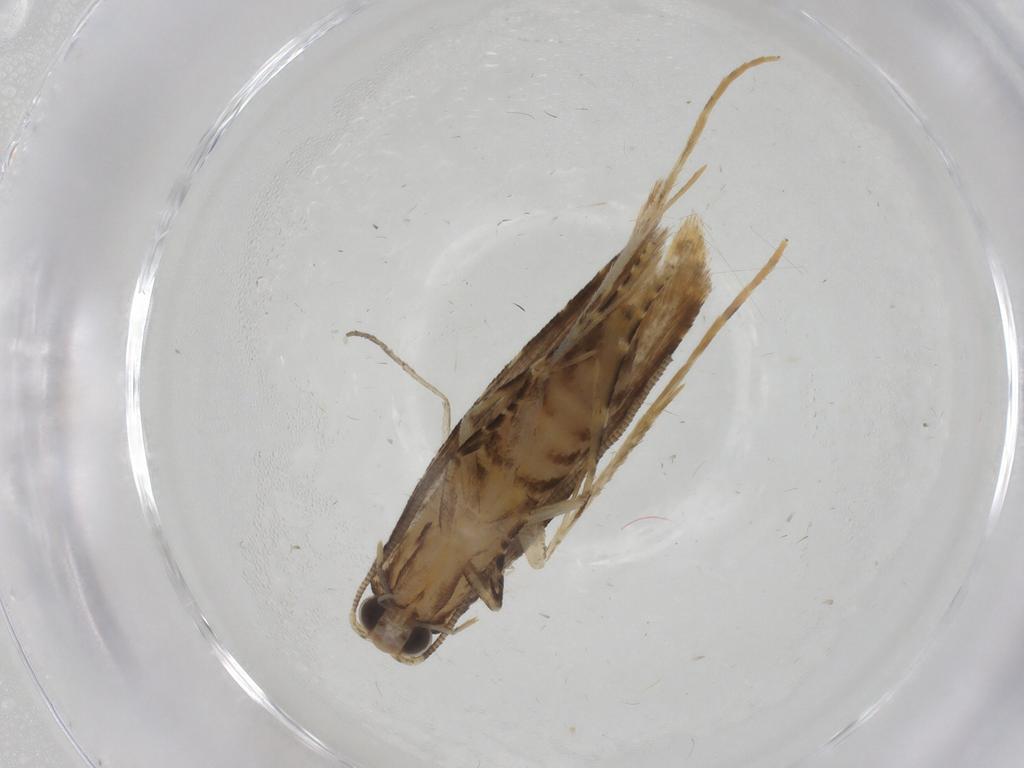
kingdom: Animalia
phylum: Arthropoda
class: Insecta
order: Lepidoptera
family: Tineidae
